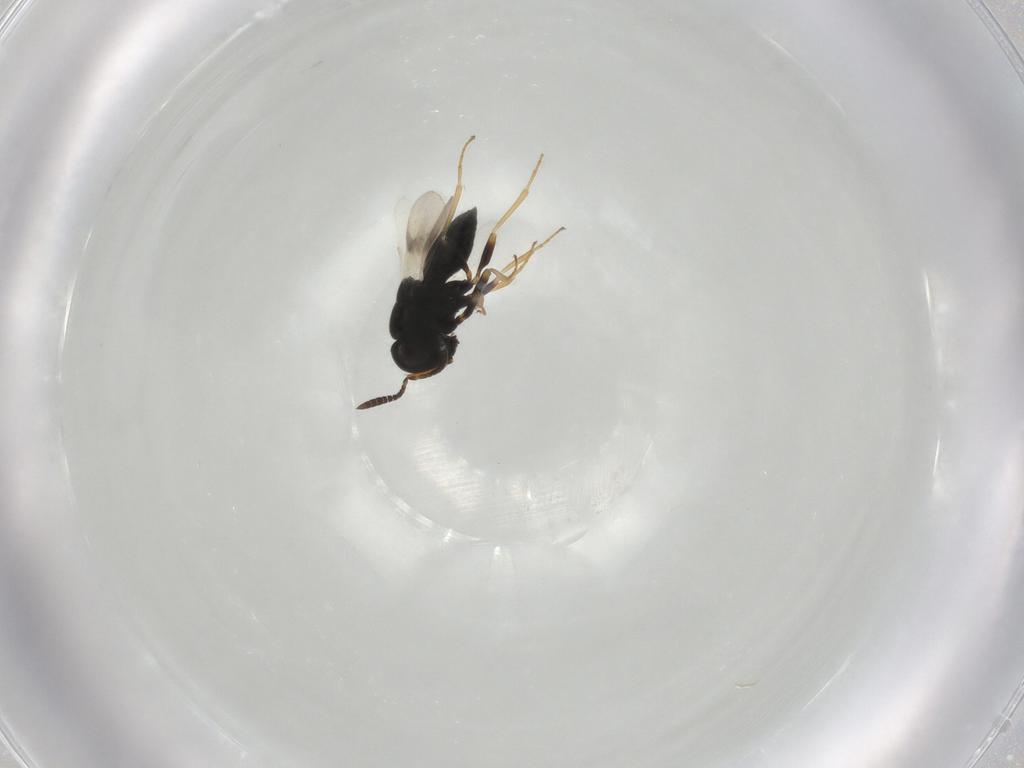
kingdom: Animalia
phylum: Arthropoda
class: Insecta
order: Hymenoptera
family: Scelionidae
